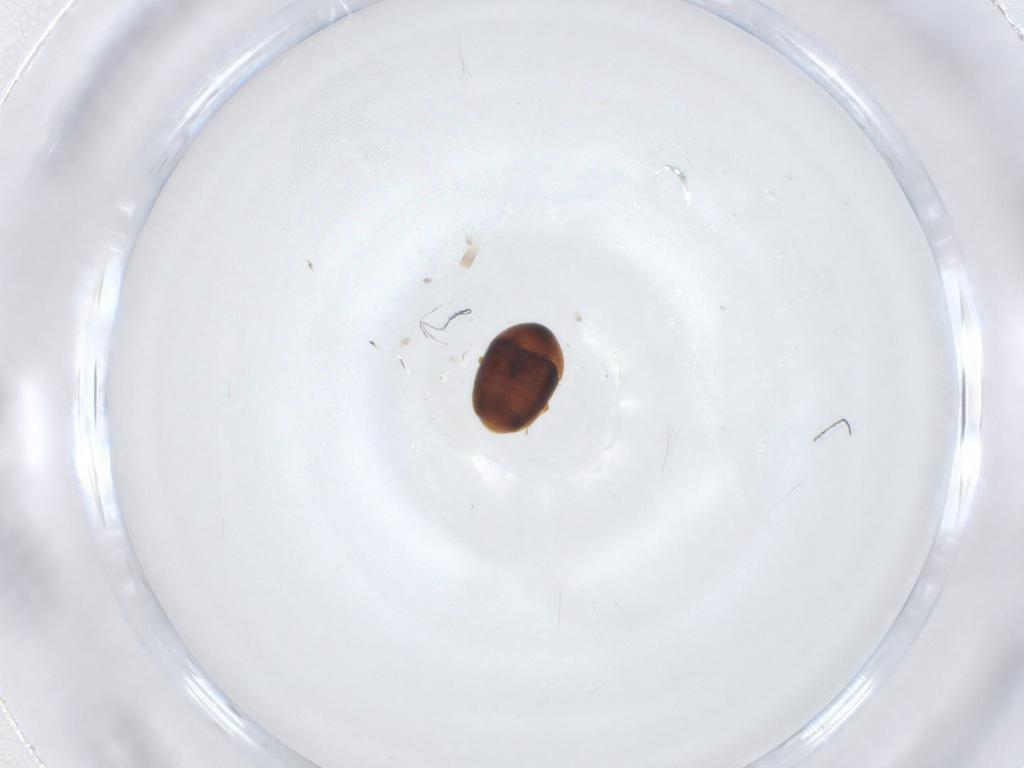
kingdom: Animalia
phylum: Arthropoda
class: Insecta
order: Coleoptera
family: Corylophidae
